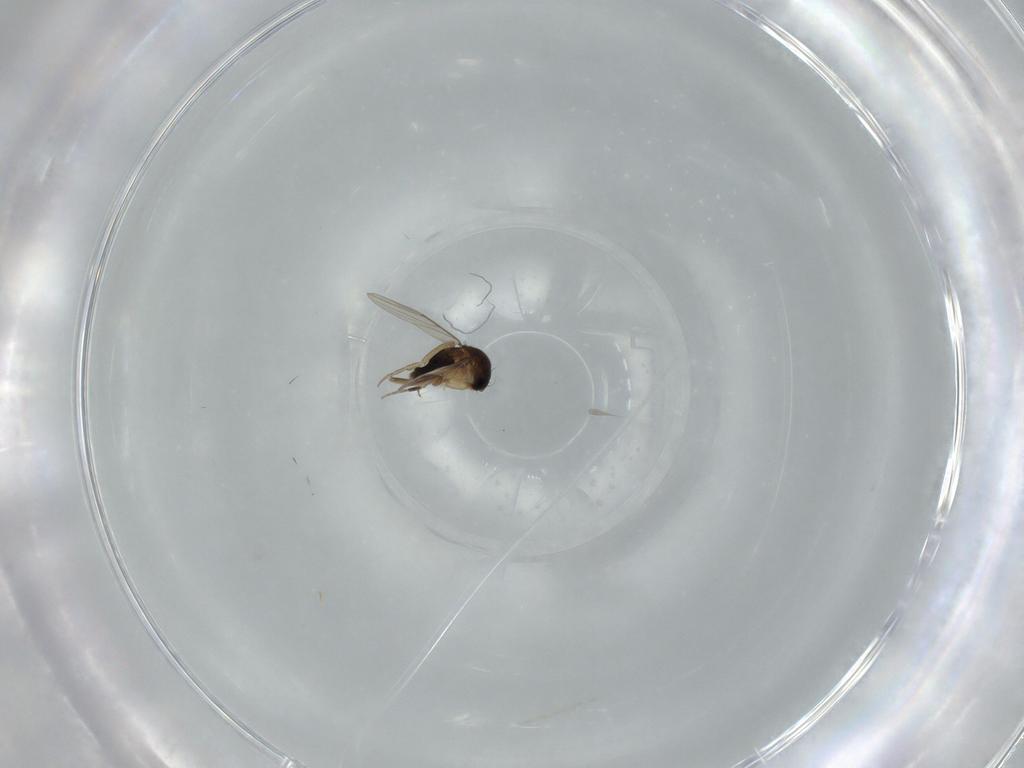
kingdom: Animalia
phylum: Arthropoda
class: Insecta
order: Diptera
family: Phoridae
